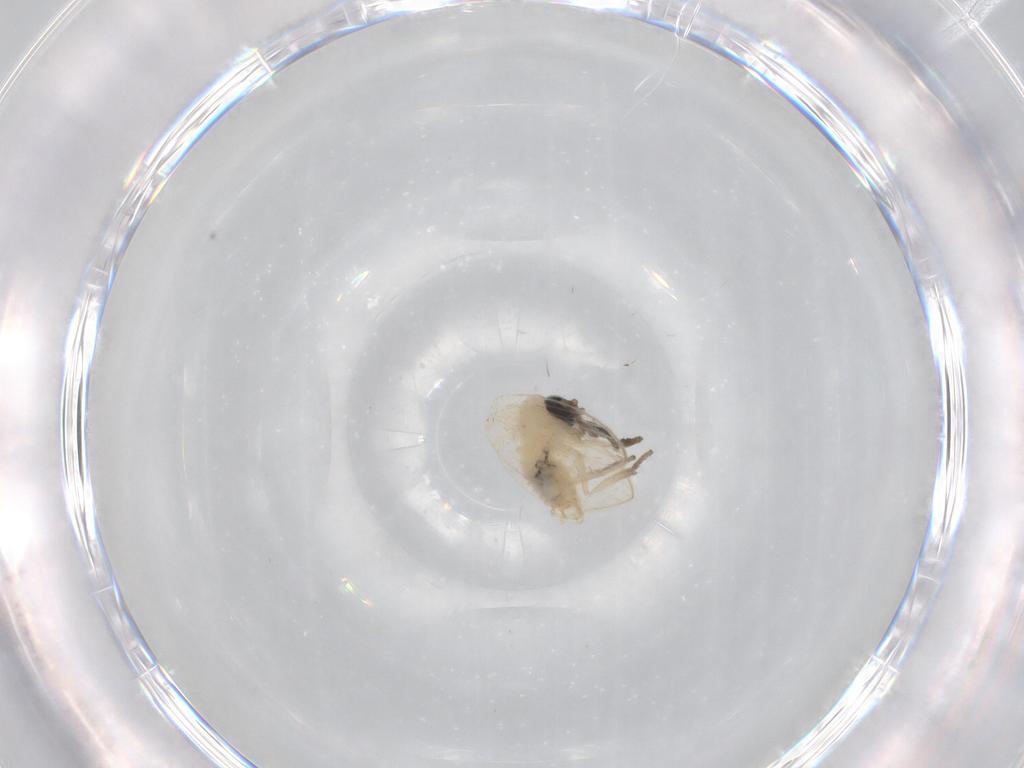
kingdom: Animalia
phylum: Arthropoda
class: Insecta
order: Diptera
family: Psychodidae
